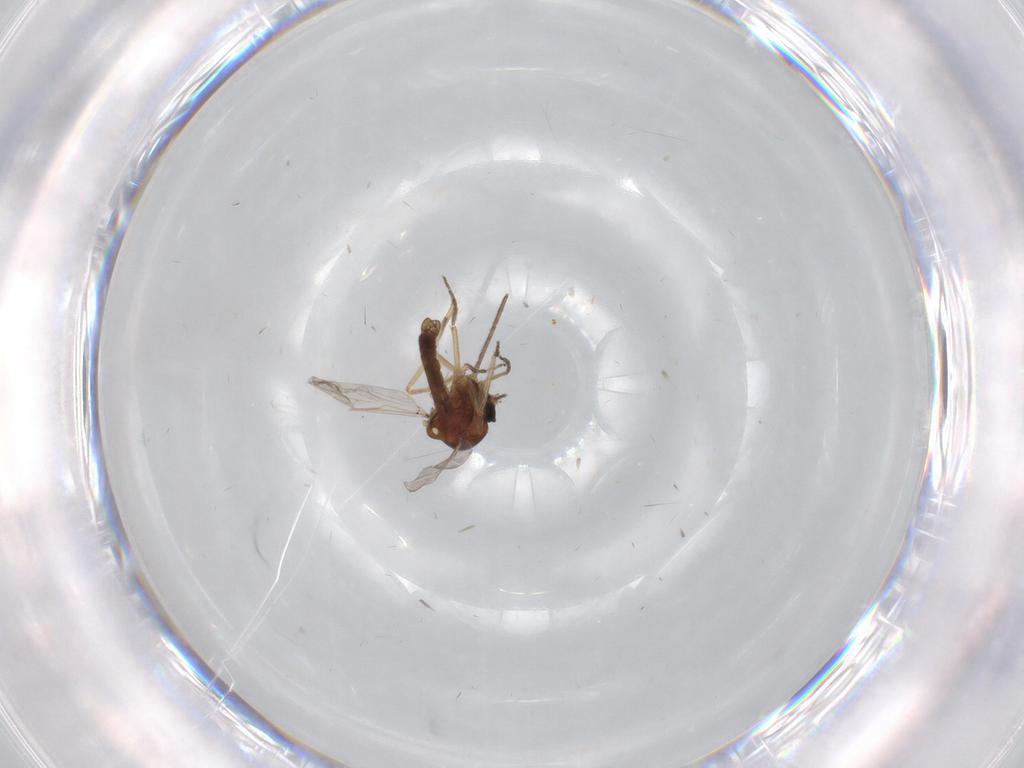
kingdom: Animalia
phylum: Arthropoda
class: Insecta
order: Diptera
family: Ceratopogonidae
